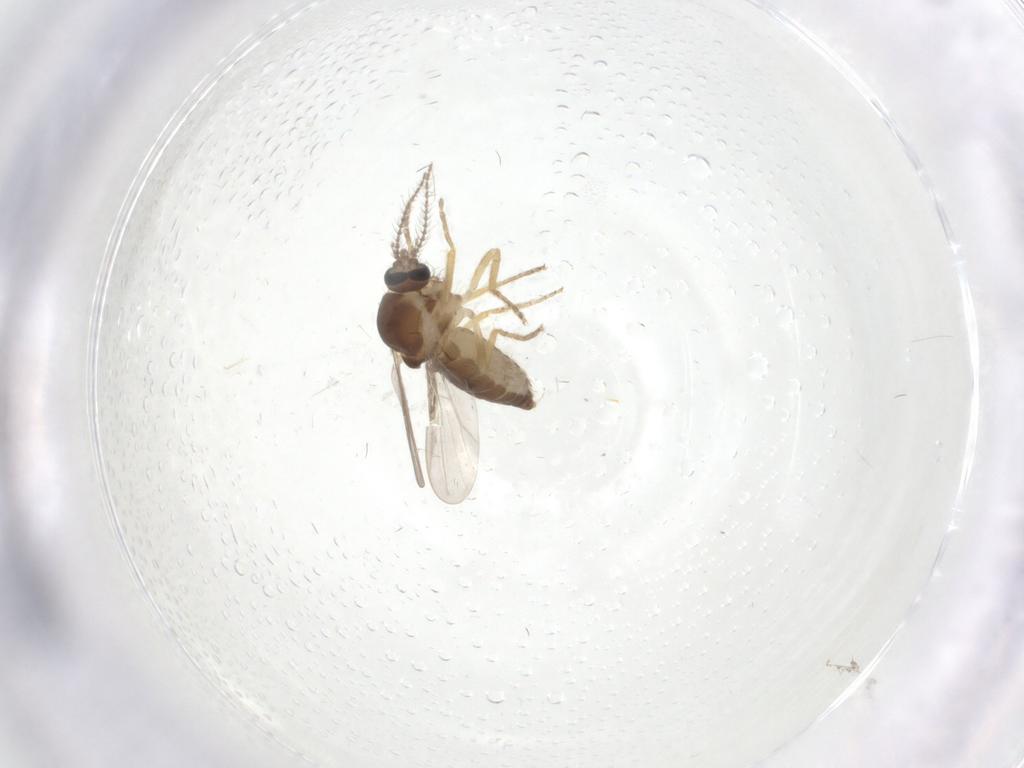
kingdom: Animalia
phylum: Arthropoda
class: Insecta
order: Diptera
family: Ceratopogonidae
